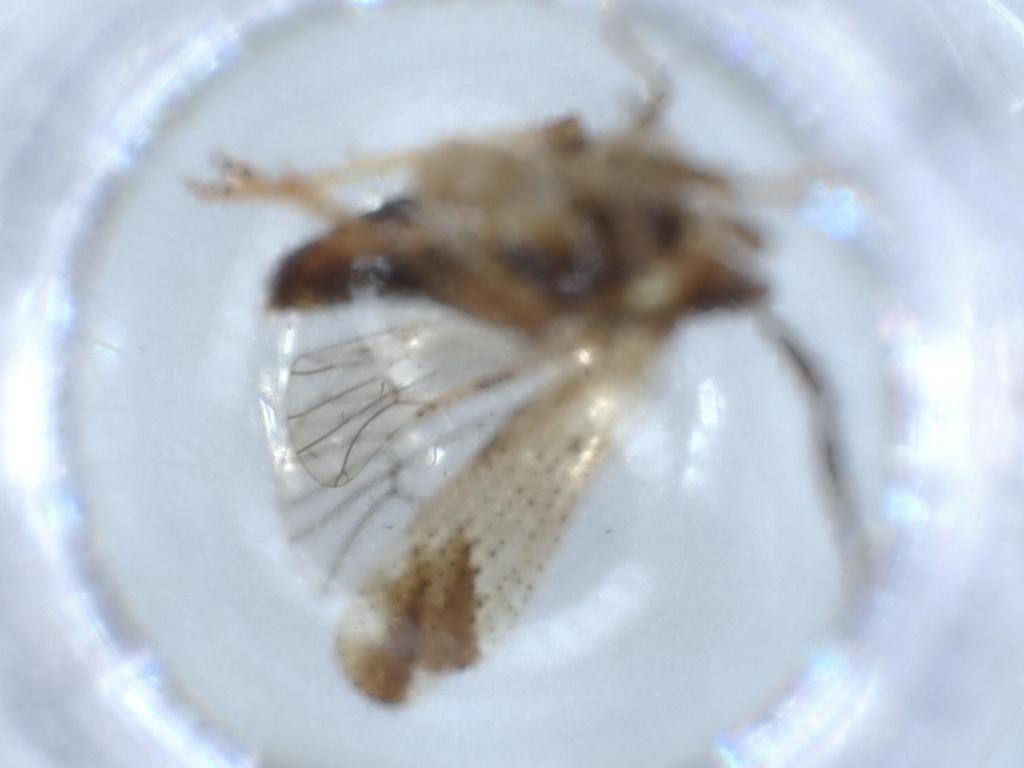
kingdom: Animalia
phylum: Arthropoda
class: Insecta
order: Hemiptera
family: Delphacidae
